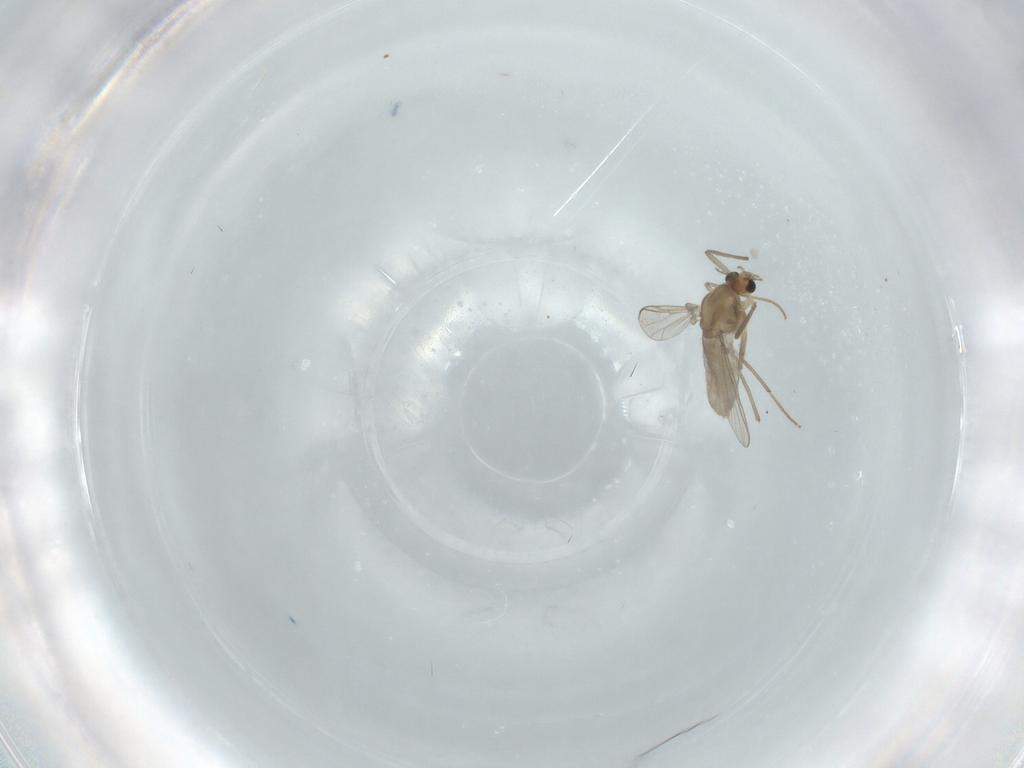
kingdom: Animalia
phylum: Arthropoda
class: Insecta
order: Diptera
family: Chironomidae
